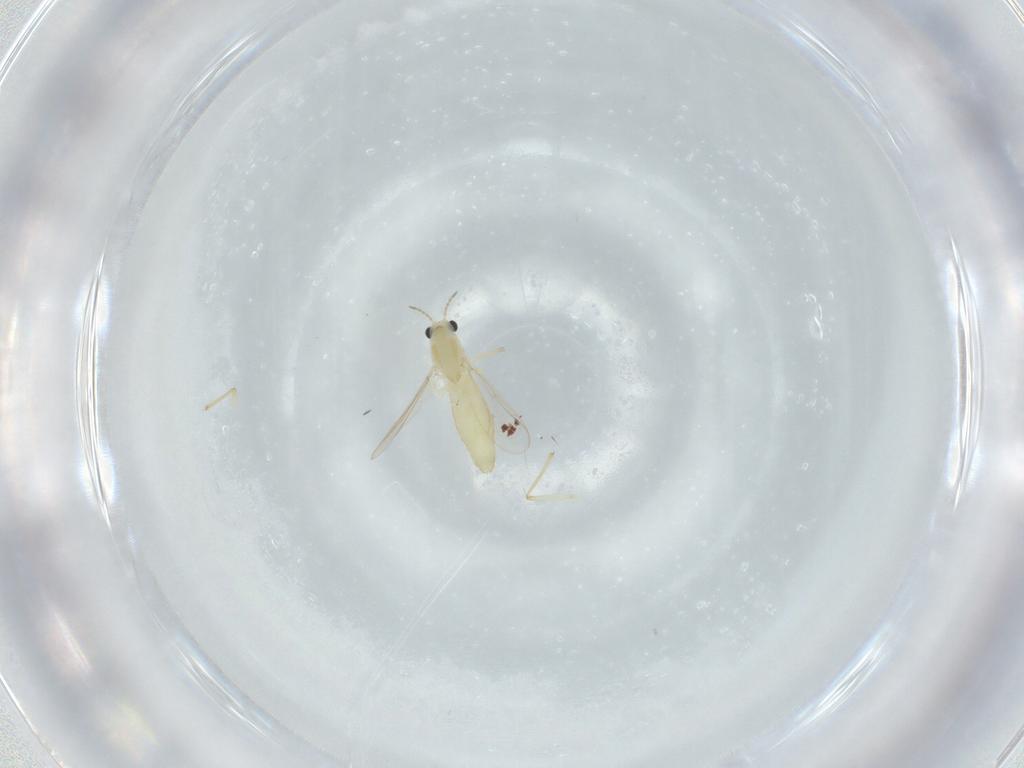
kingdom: Animalia
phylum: Arthropoda
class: Insecta
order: Diptera
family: Chironomidae
